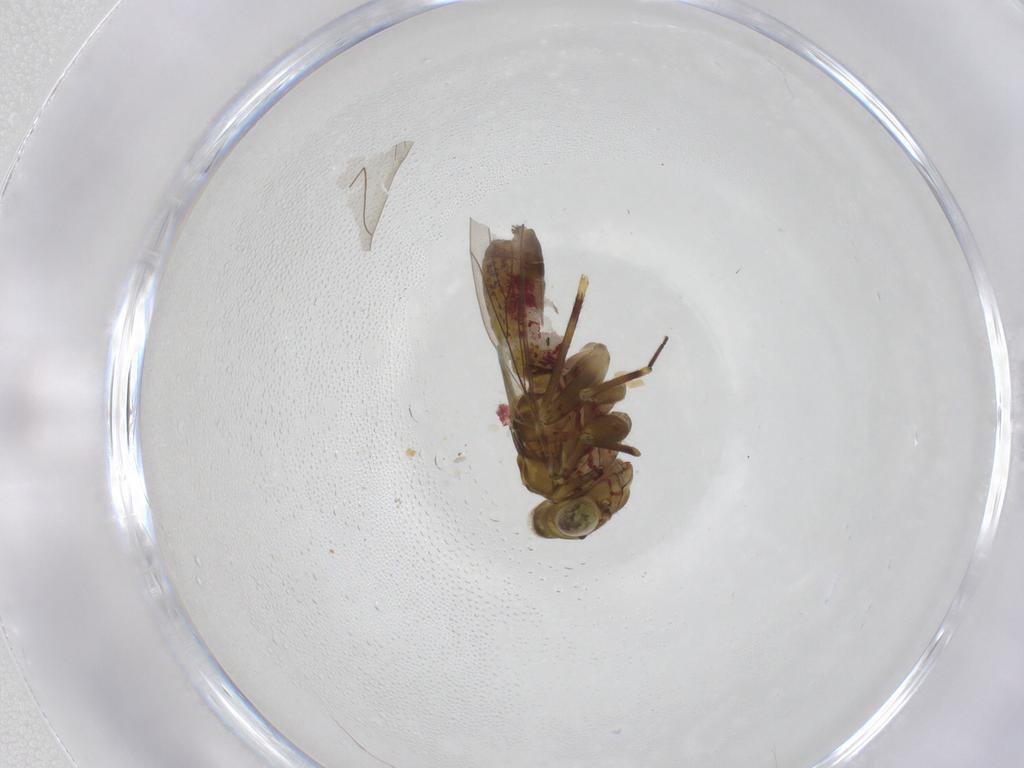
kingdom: Animalia
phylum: Arthropoda
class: Insecta
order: Psocodea
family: Philotarsidae
